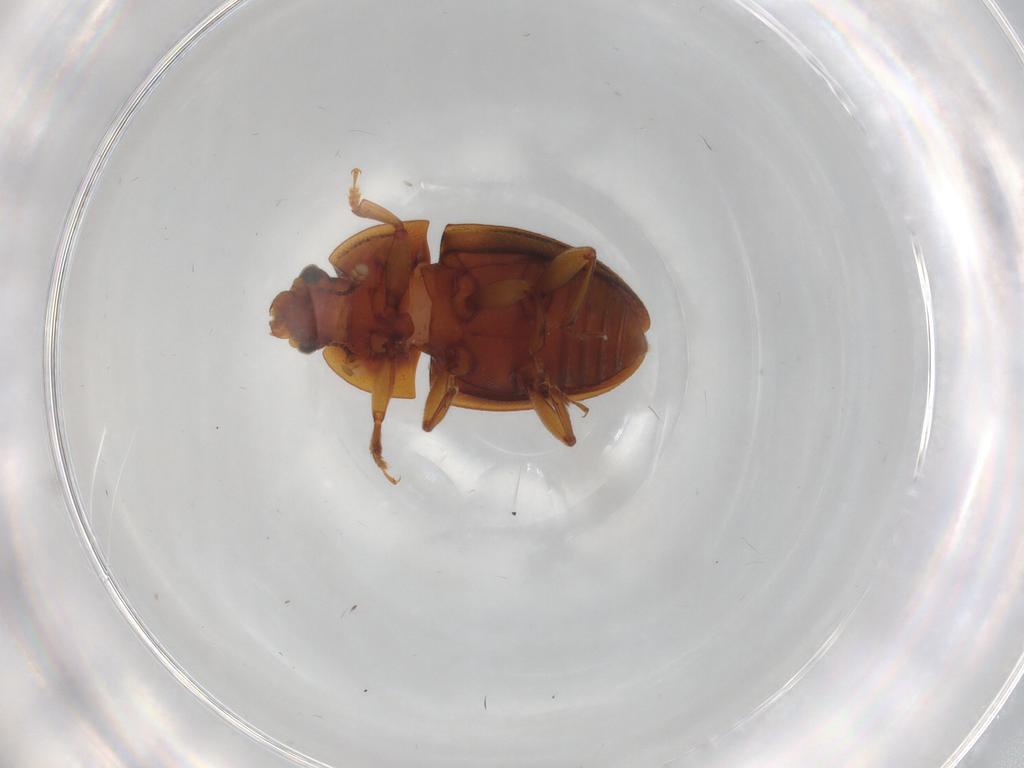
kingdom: Animalia
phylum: Arthropoda
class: Insecta
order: Coleoptera
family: Nitidulidae
